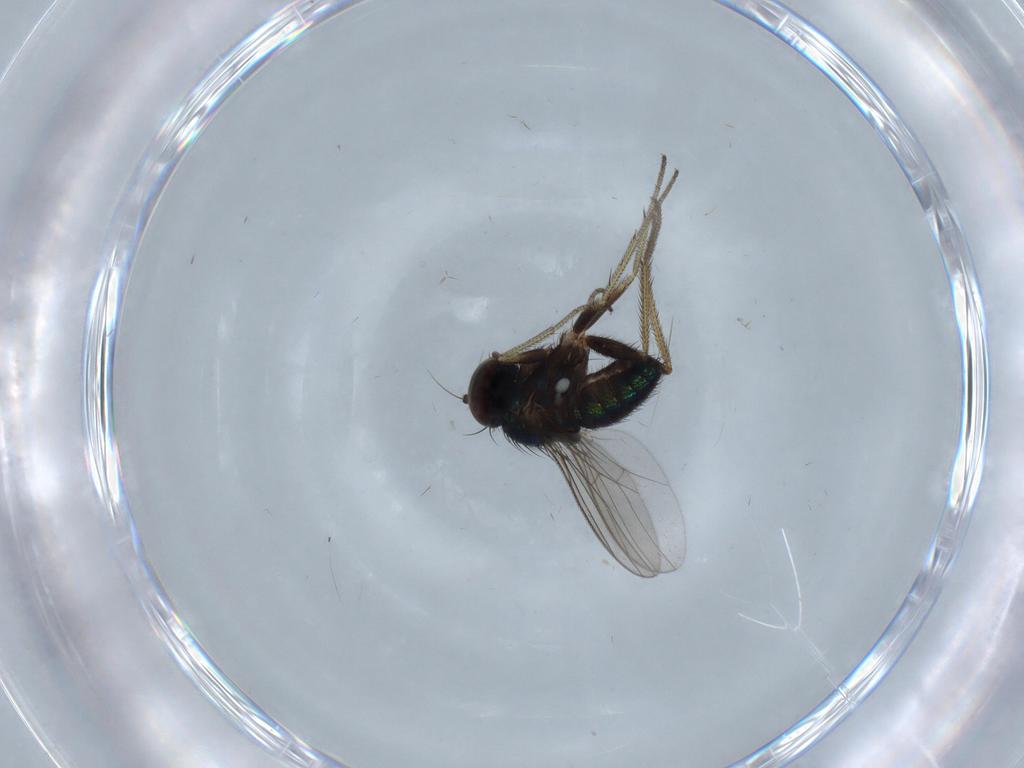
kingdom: Animalia
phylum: Arthropoda
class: Insecta
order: Diptera
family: Dolichopodidae
